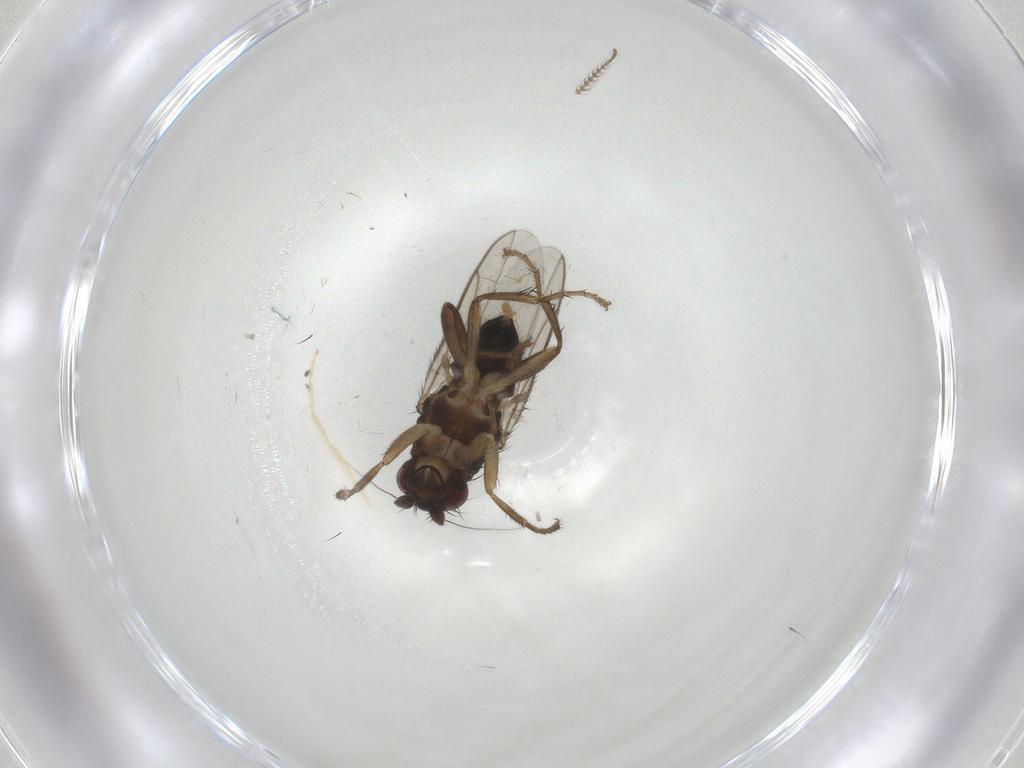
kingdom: Animalia
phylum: Arthropoda
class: Insecta
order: Diptera
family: Sphaeroceridae
